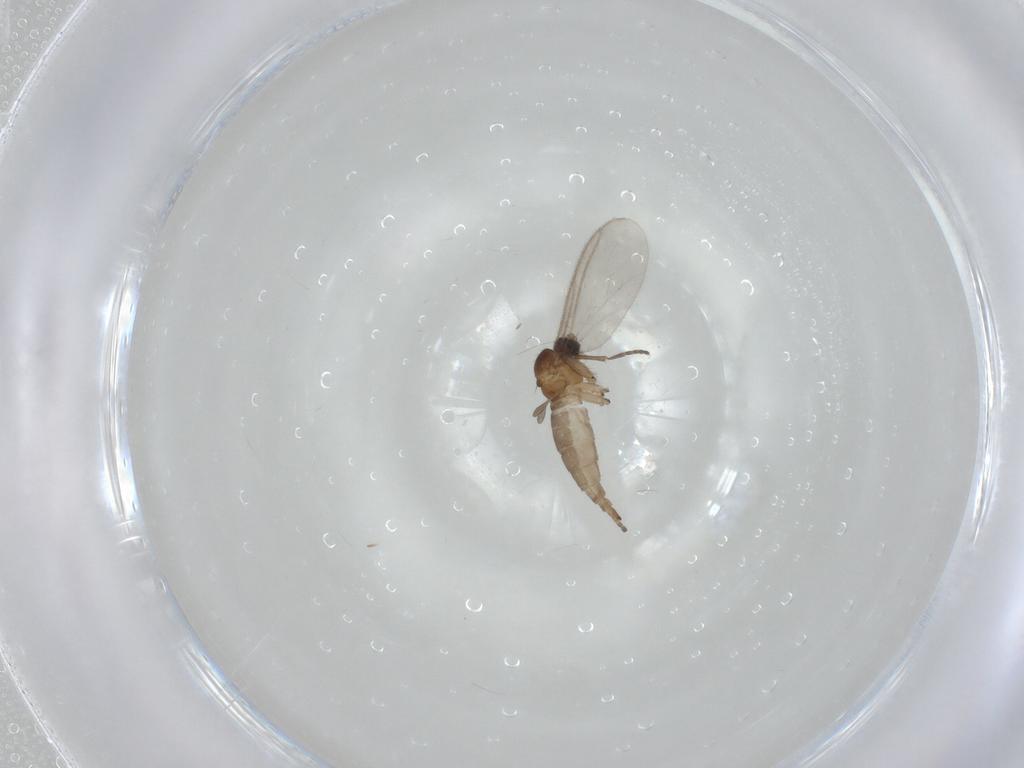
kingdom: Animalia
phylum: Arthropoda
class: Insecta
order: Diptera
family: Sciaridae
